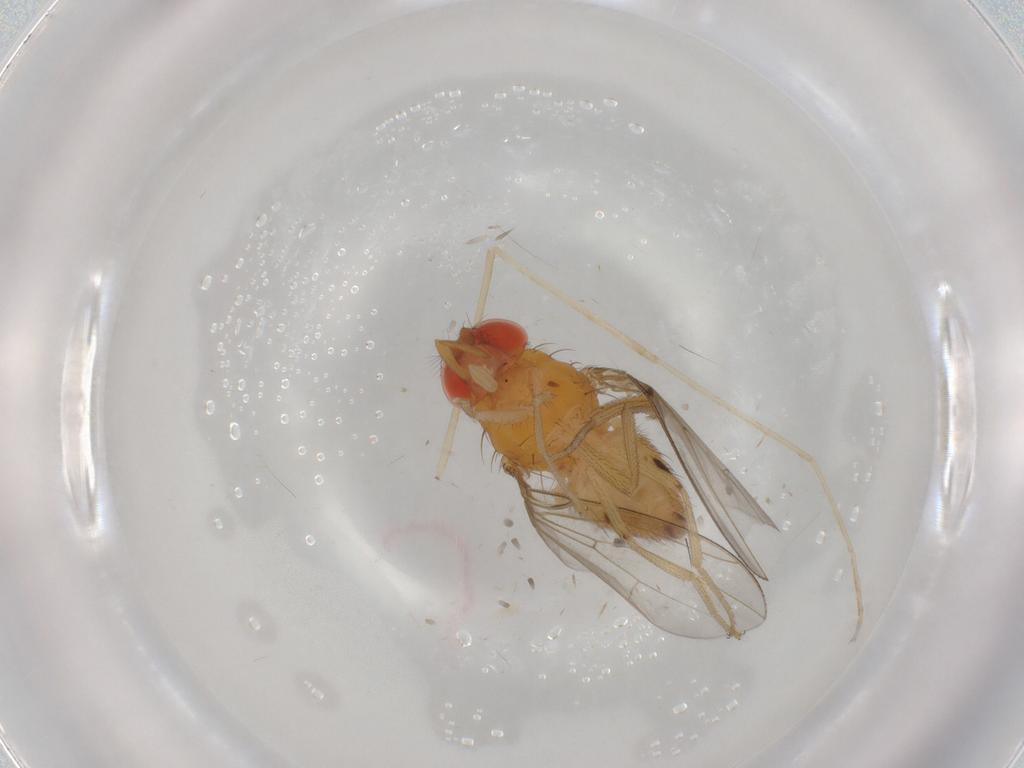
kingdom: Animalia
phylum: Arthropoda
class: Insecta
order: Diptera
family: Drosophilidae
